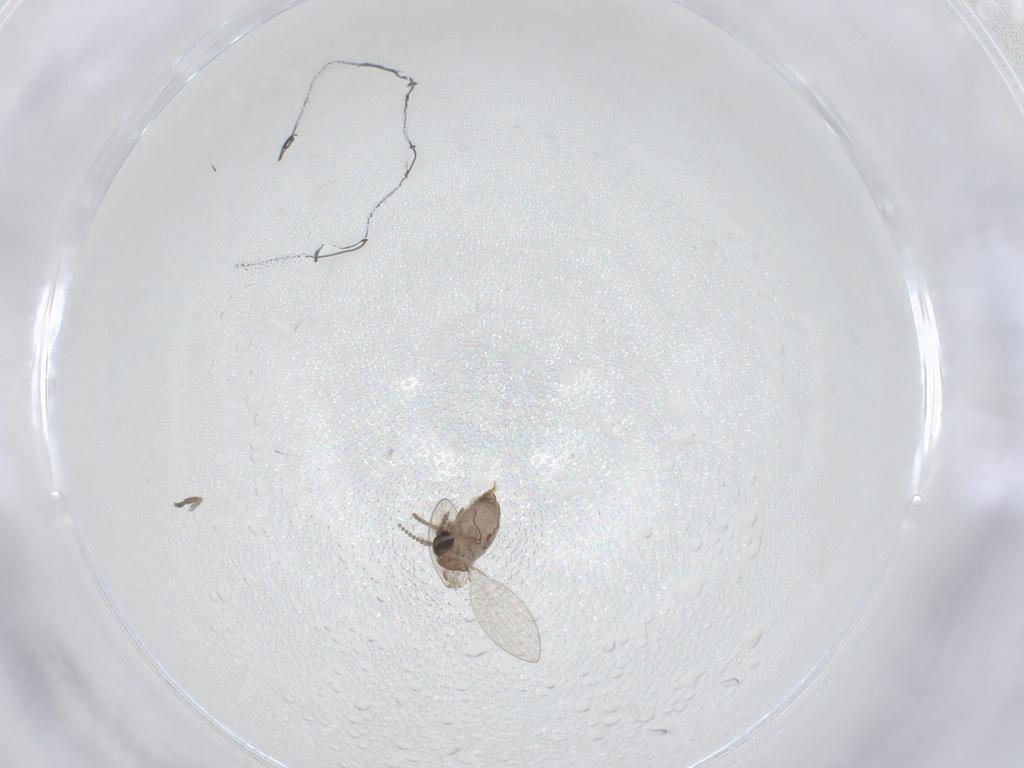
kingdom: Animalia
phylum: Arthropoda
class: Insecta
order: Diptera
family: Psychodidae
